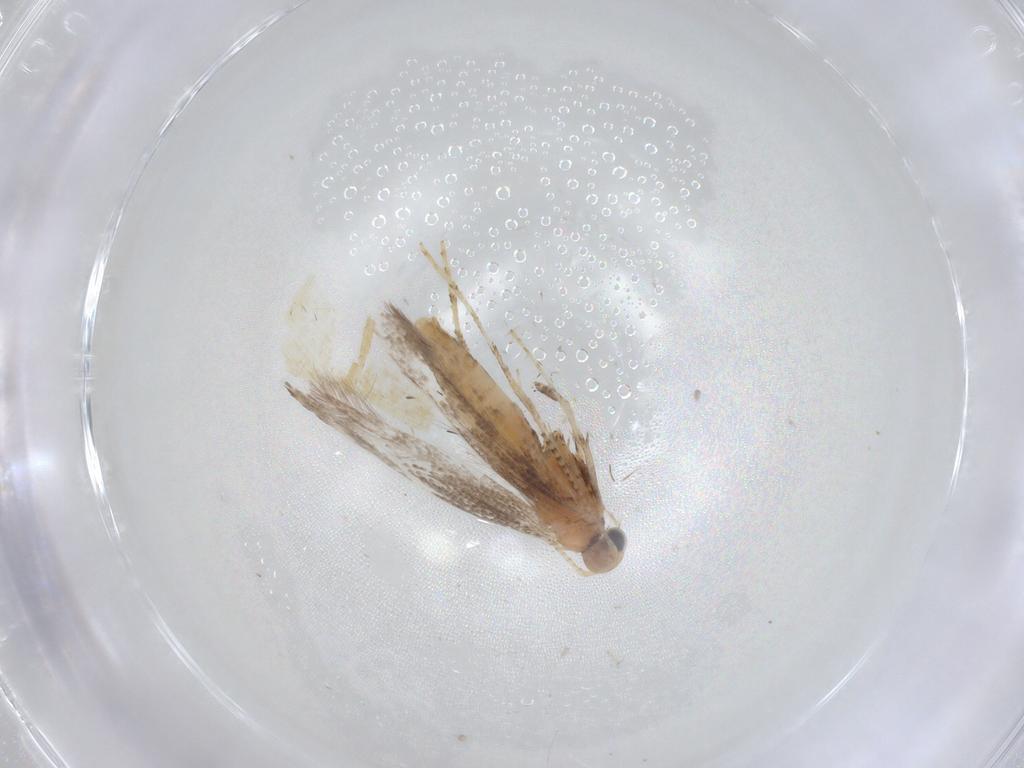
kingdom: Animalia
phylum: Arthropoda
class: Insecta
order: Lepidoptera
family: Gracillariidae
